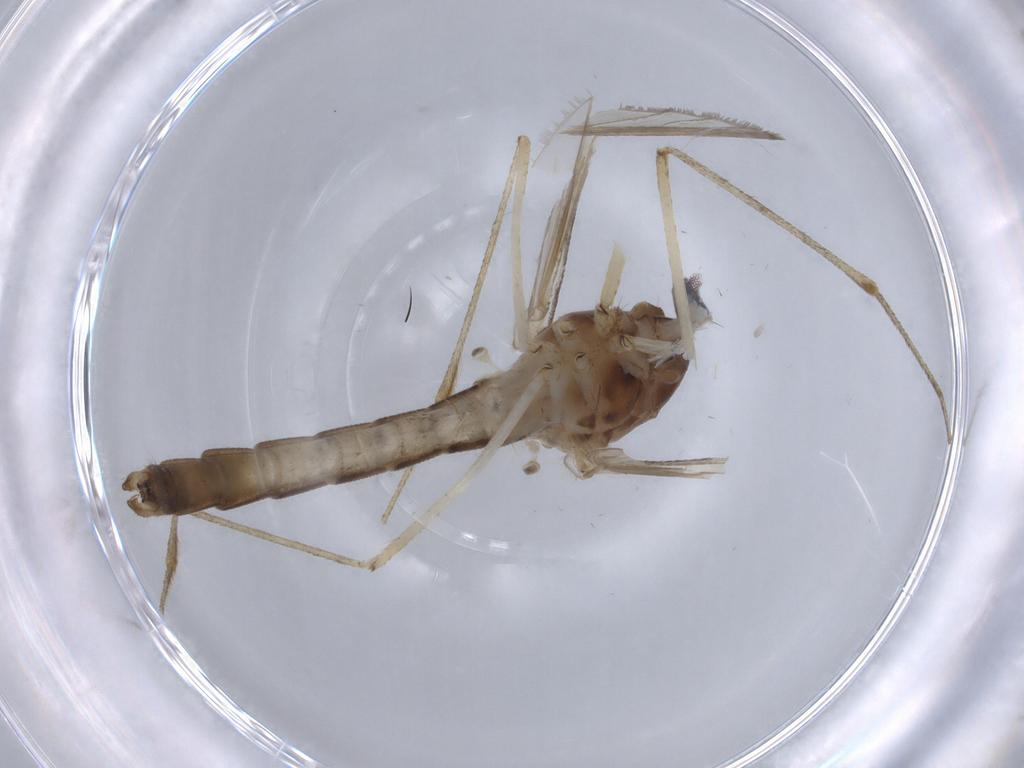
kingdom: Animalia
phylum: Arthropoda
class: Insecta
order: Diptera
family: Culicidae
